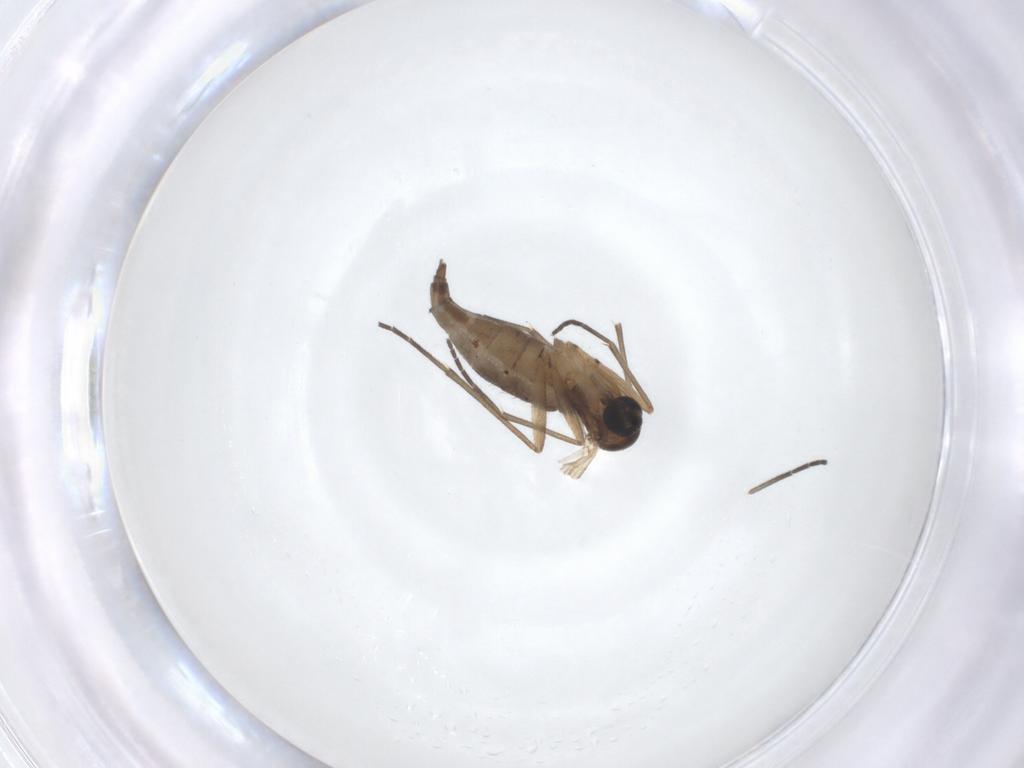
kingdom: Animalia
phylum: Arthropoda
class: Insecta
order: Diptera
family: Sciaridae
